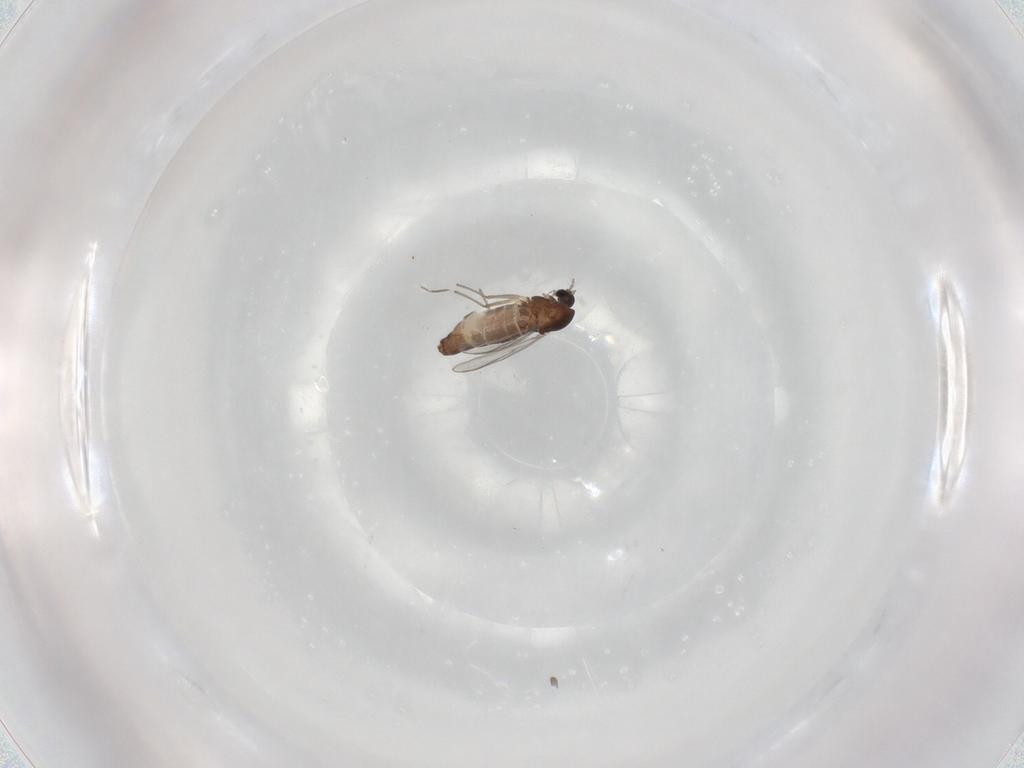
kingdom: Animalia
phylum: Arthropoda
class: Insecta
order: Diptera
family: Chironomidae
